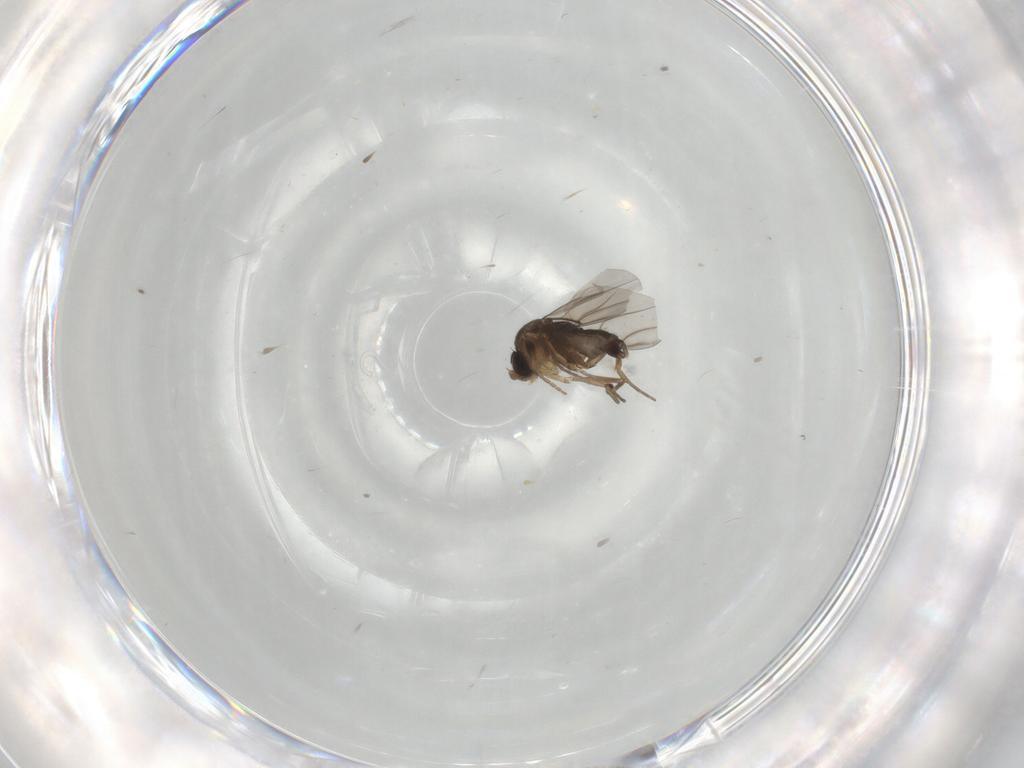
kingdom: Animalia
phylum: Arthropoda
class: Insecta
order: Diptera
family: Phoridae
